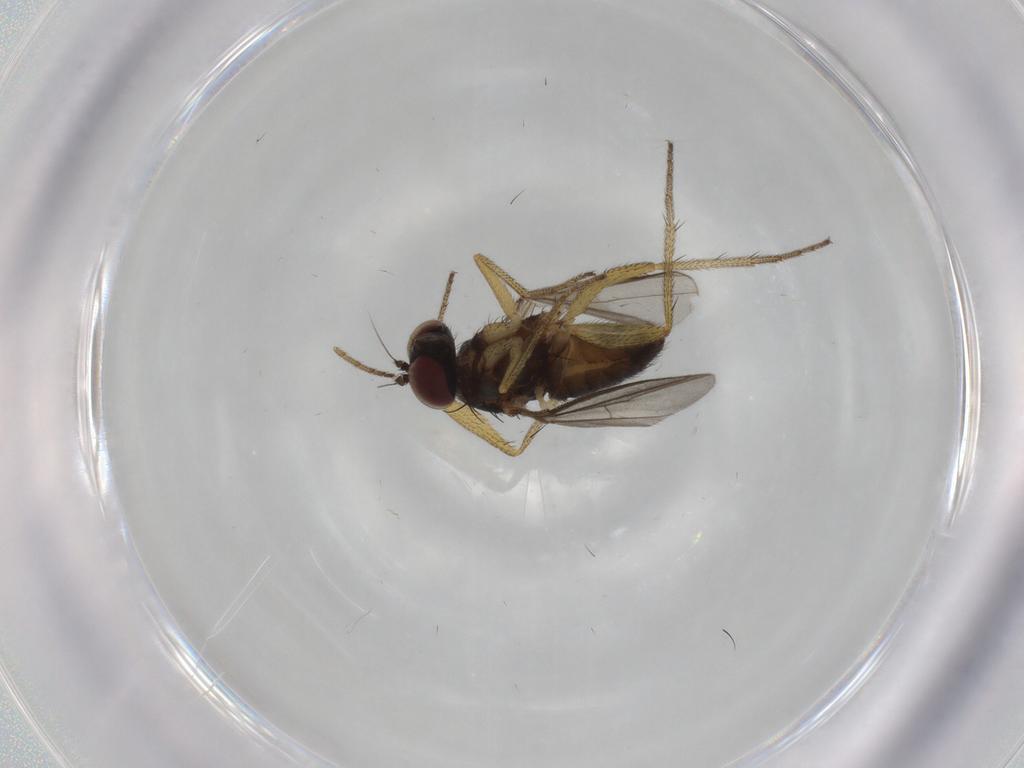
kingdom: Animalia
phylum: Arthropoda
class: Insecta
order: Diptera
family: Dolichopodidae
